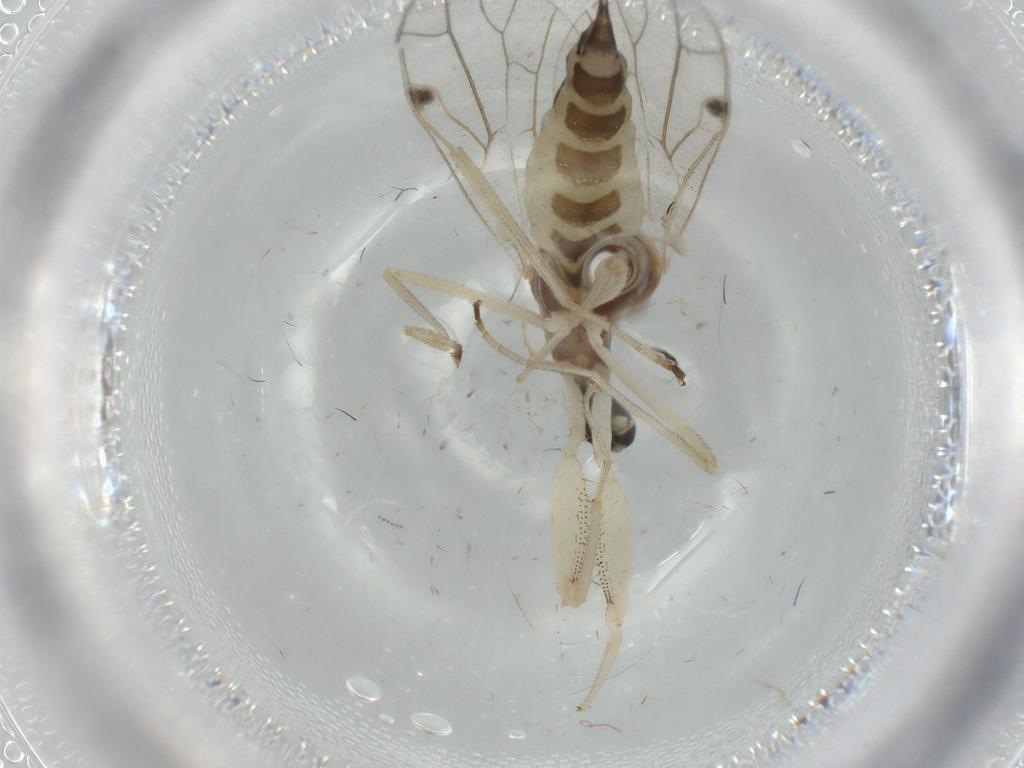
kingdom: Animalia
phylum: Arthropoda
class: Insecta
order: Diptera
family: Empididae
